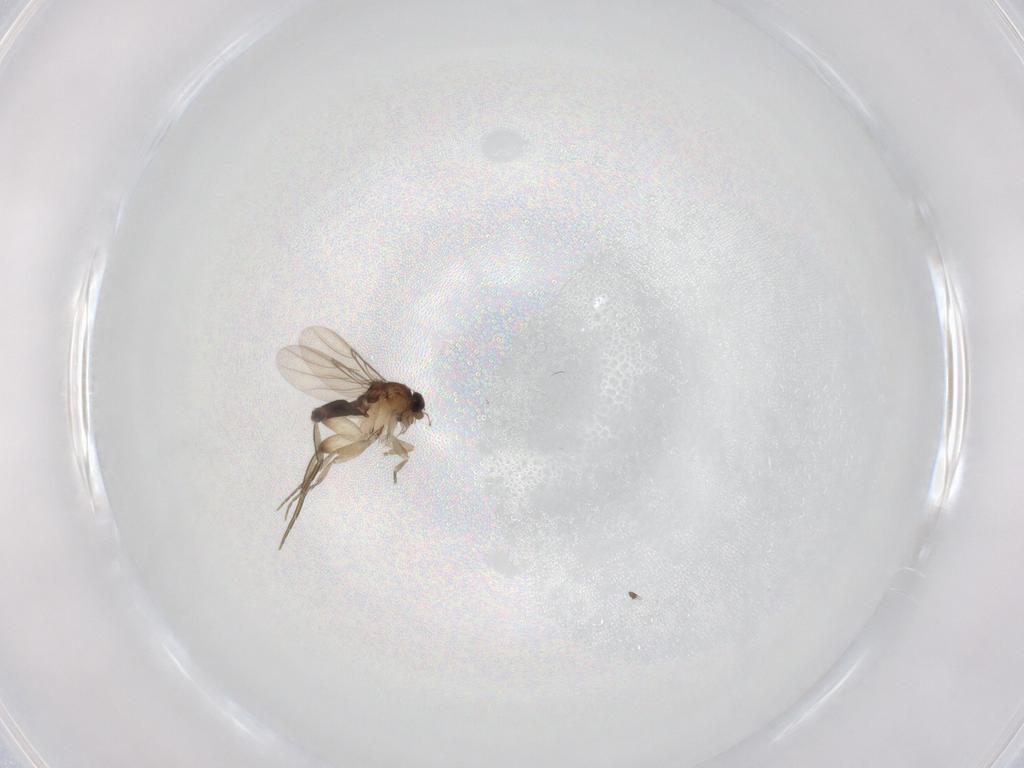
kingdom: Animalia
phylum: Arthropoda
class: Insecta
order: Diptera
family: Phoridae
